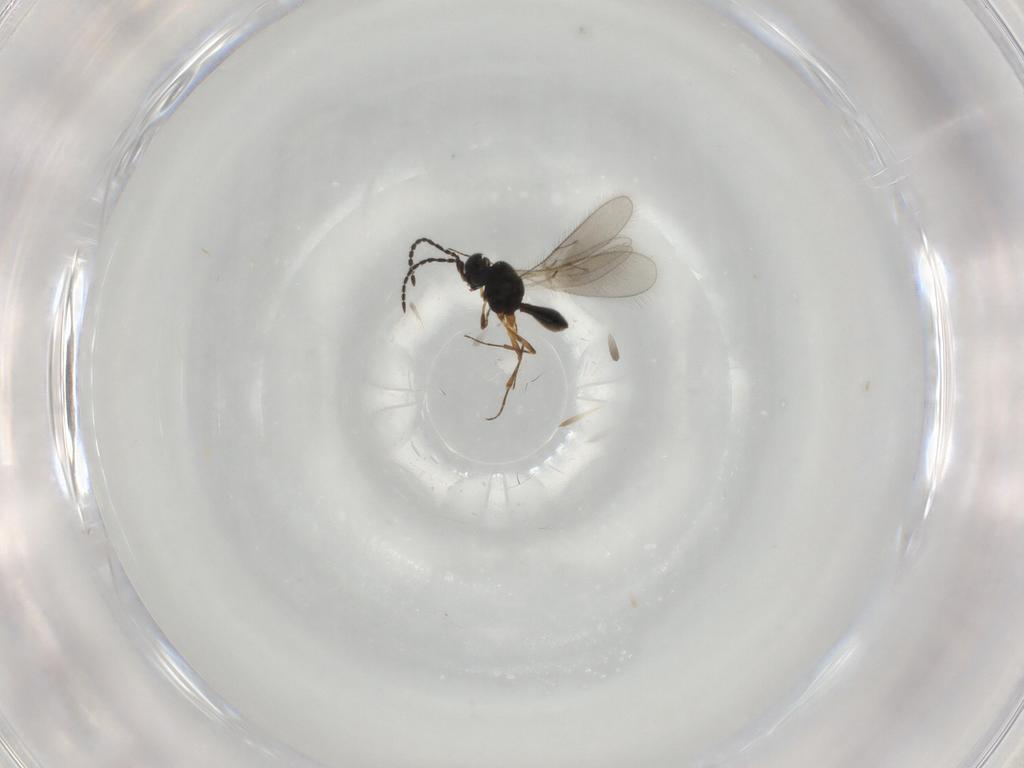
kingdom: Animalia
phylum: Arthropoda
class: Insecta
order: Hymenoptera
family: Scelionidae
